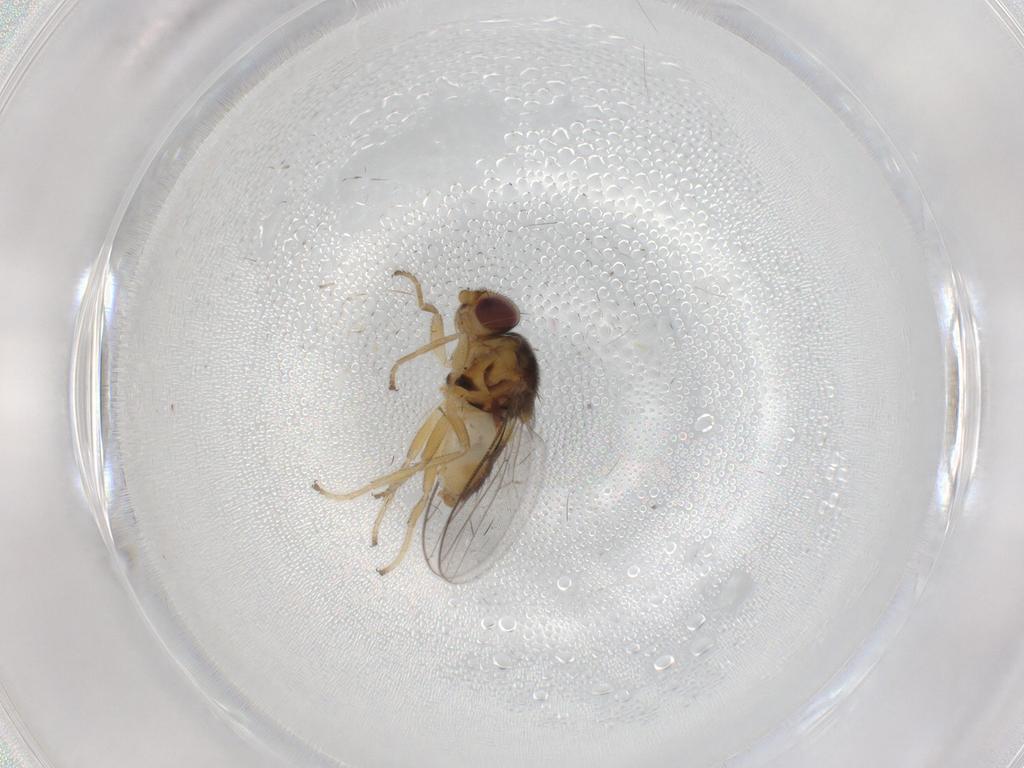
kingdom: Animalia
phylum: Arthropoda
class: Insecta
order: Diptera
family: Chloropidae
